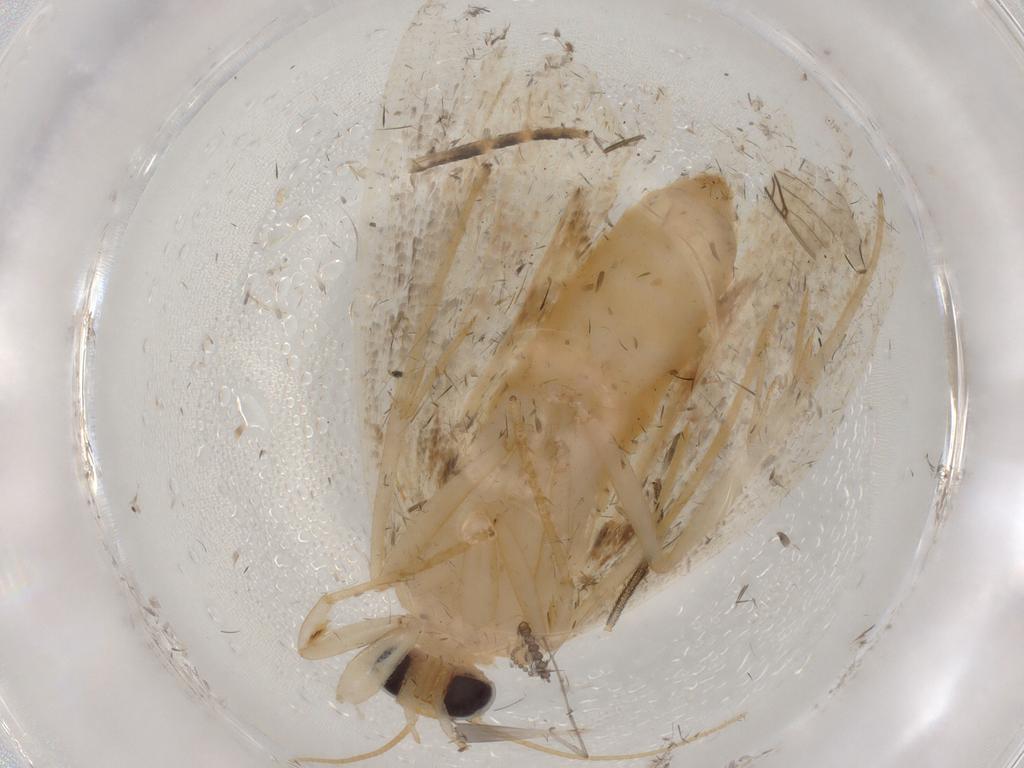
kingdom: Animalia
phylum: Arthropoda
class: Insecta
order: Lepidoptera
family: Erebidae
